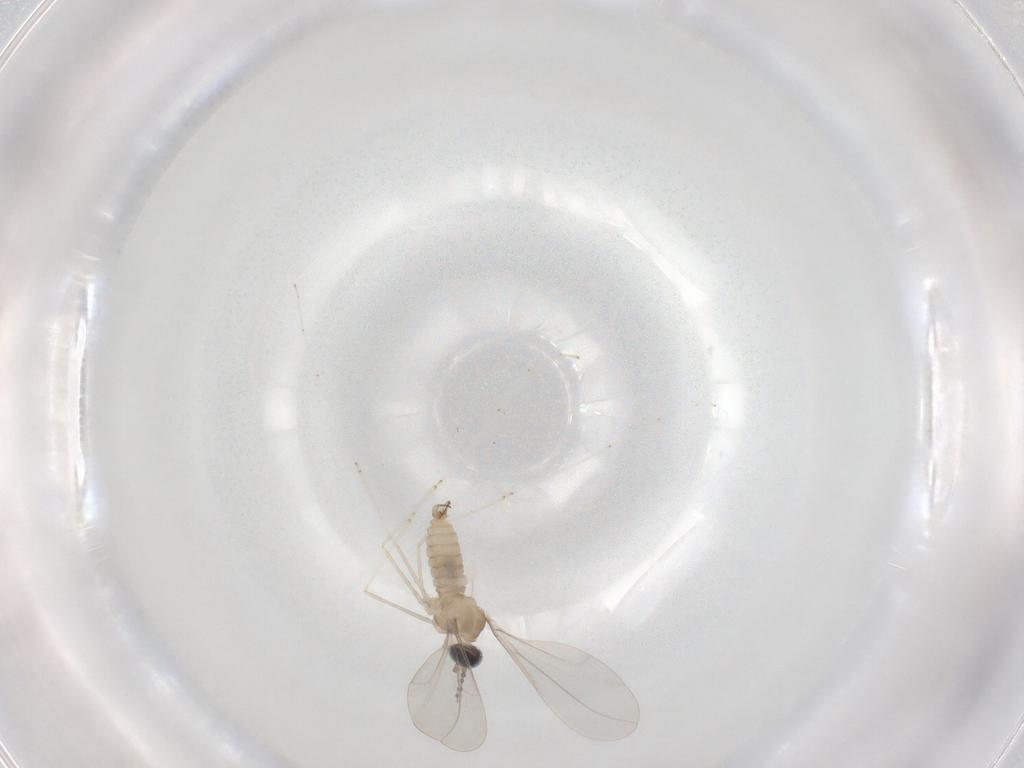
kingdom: Animalia
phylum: Arthropoda
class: Insecta
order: Diptera
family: Cecidomyiidae
